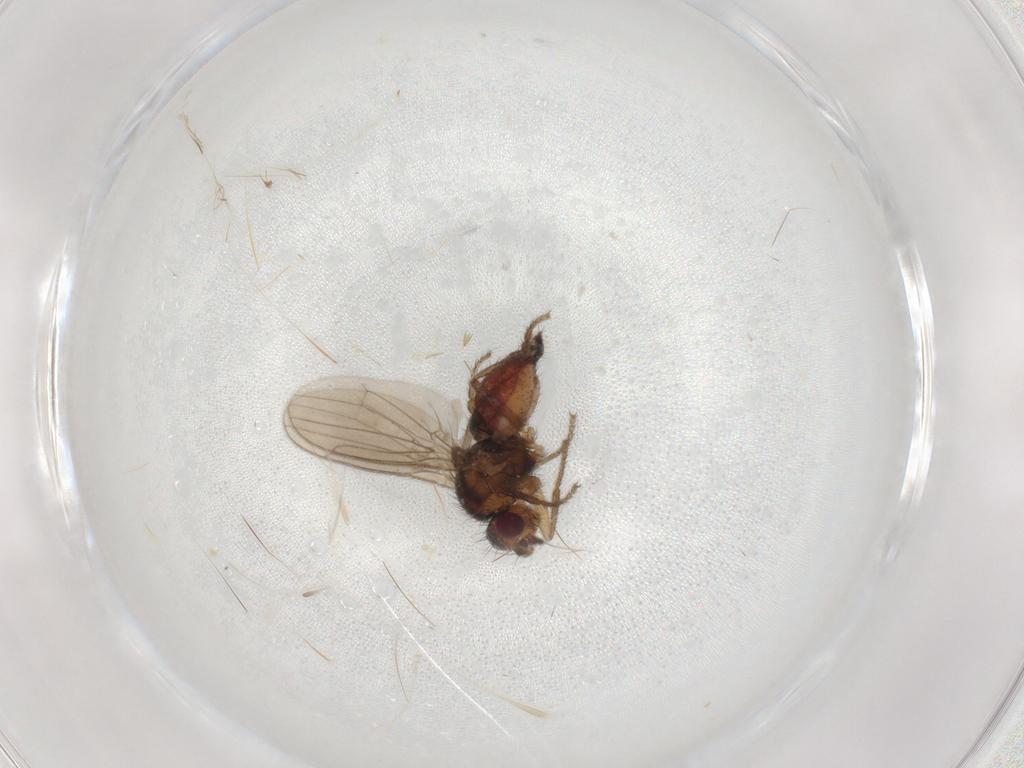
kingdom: Animalia
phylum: Arthropoda
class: Insecta
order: Diptera
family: Sphaeroceridae
